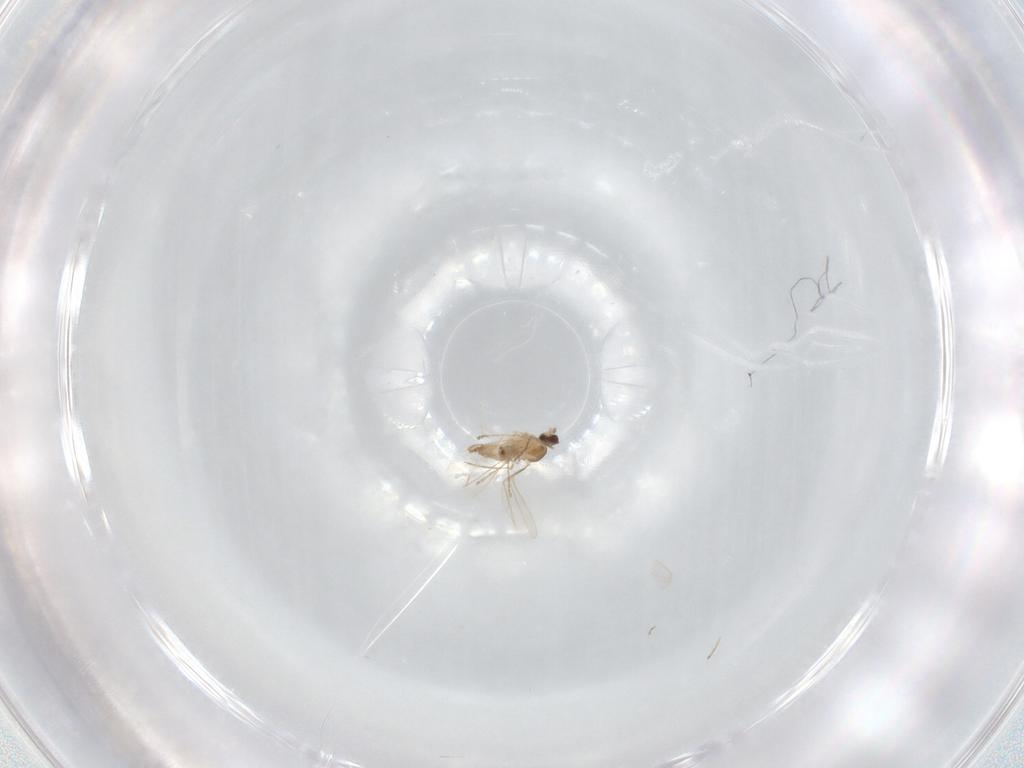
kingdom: Animalia
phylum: Arthropoda
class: Insecta
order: Diptera
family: Cecidomyiidae
